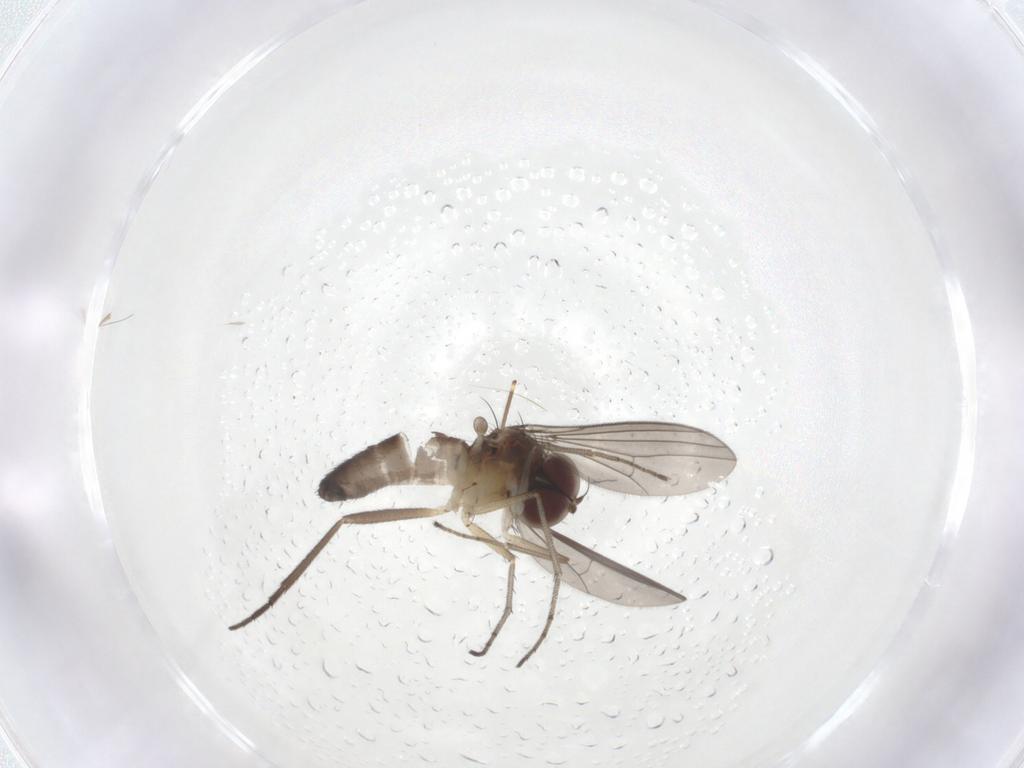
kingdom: Animalia
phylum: Arthropoda
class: Insecta
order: Diptera
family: Dolichopodidae
